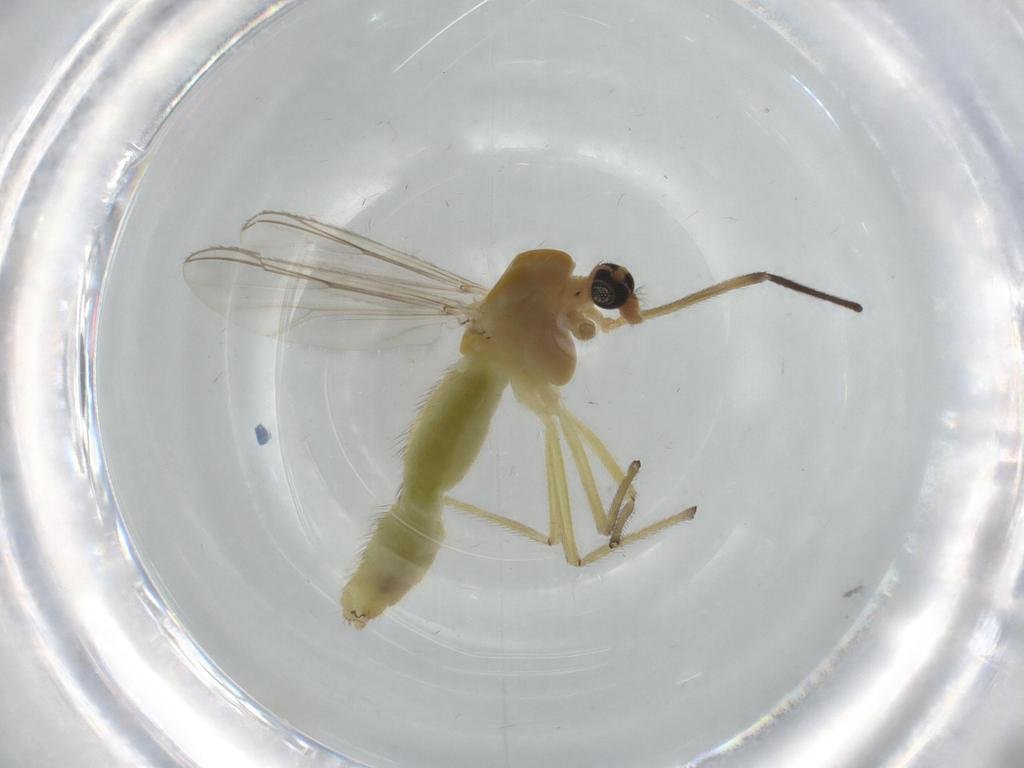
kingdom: Animalia
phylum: Arthropoda
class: Insecta
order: Diptera
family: Chironomidae
